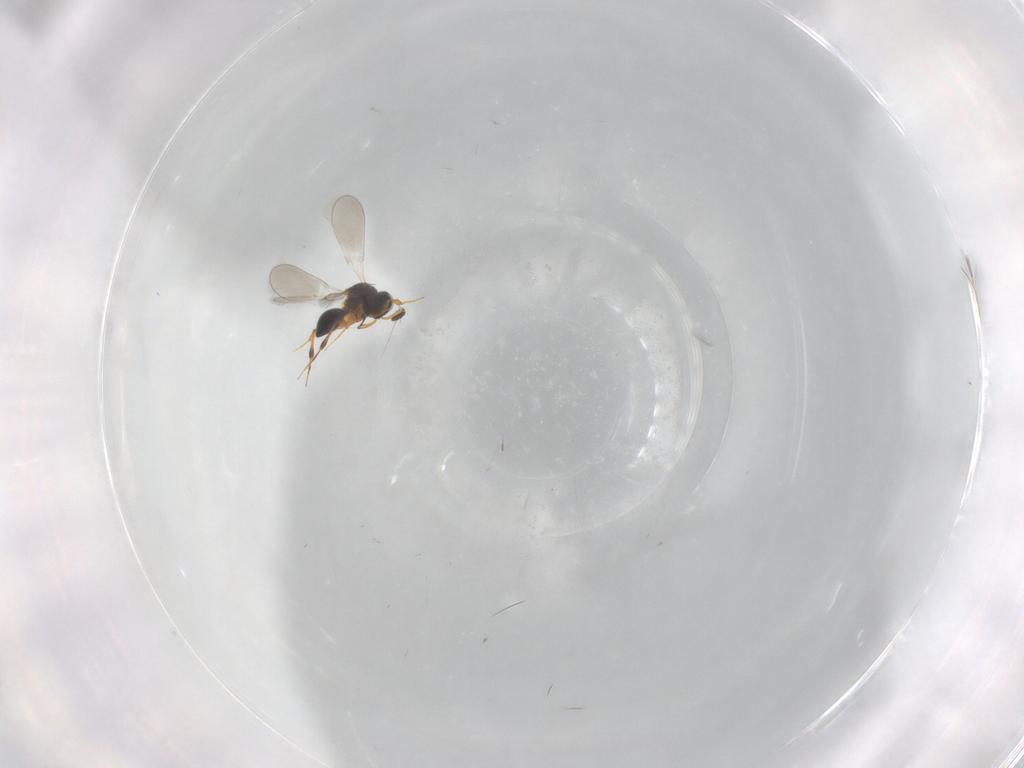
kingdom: Animalia
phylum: Arthropoda
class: Insecta
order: Hymenoptera
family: Platygastridae
